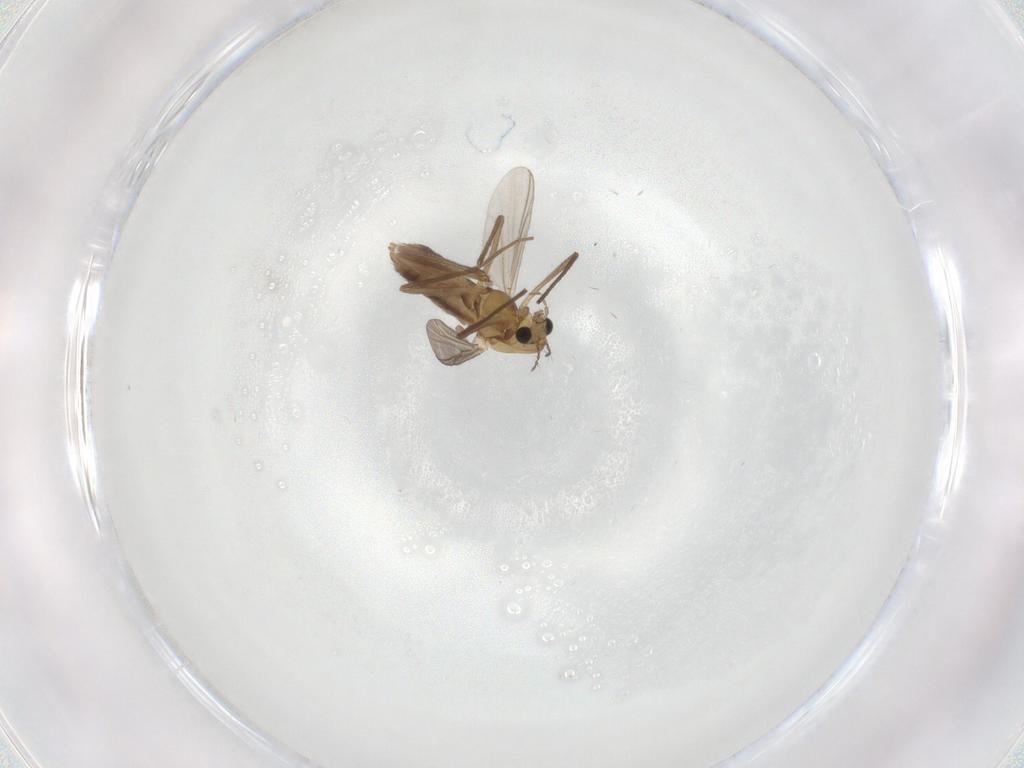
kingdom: Animalia
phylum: Arthropoda
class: Insecta
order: Diptera
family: Chironomidae
